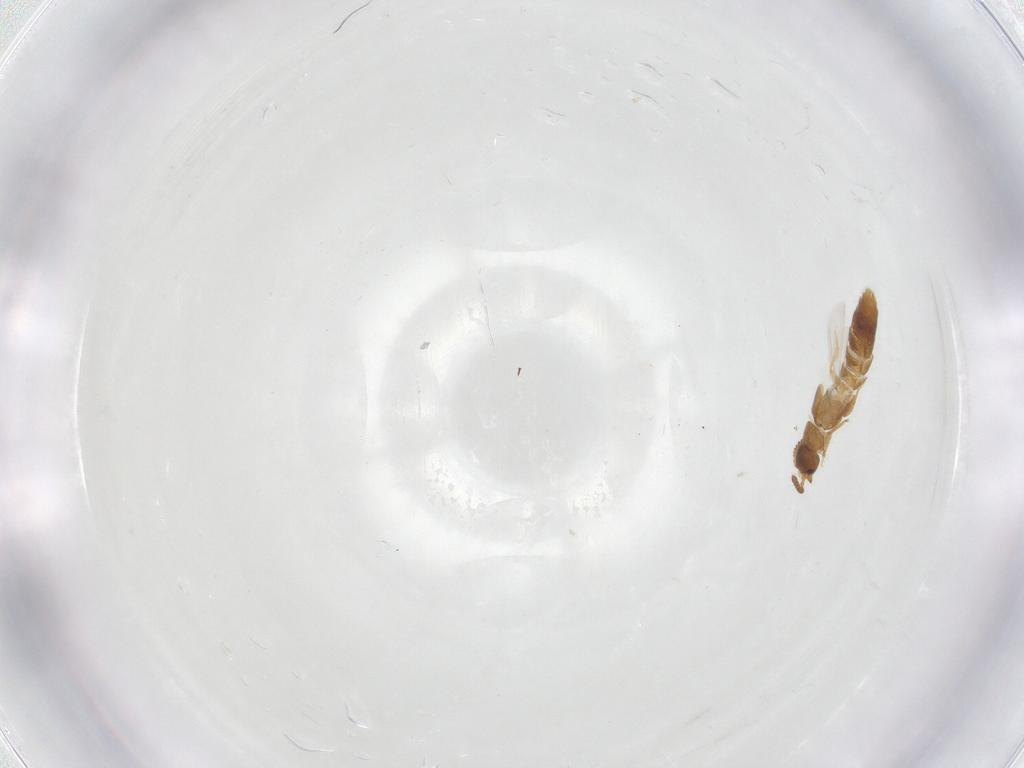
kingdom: Animalia
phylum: Arthropoda
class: Insecta
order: Coleoptera
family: Staphylinidae
